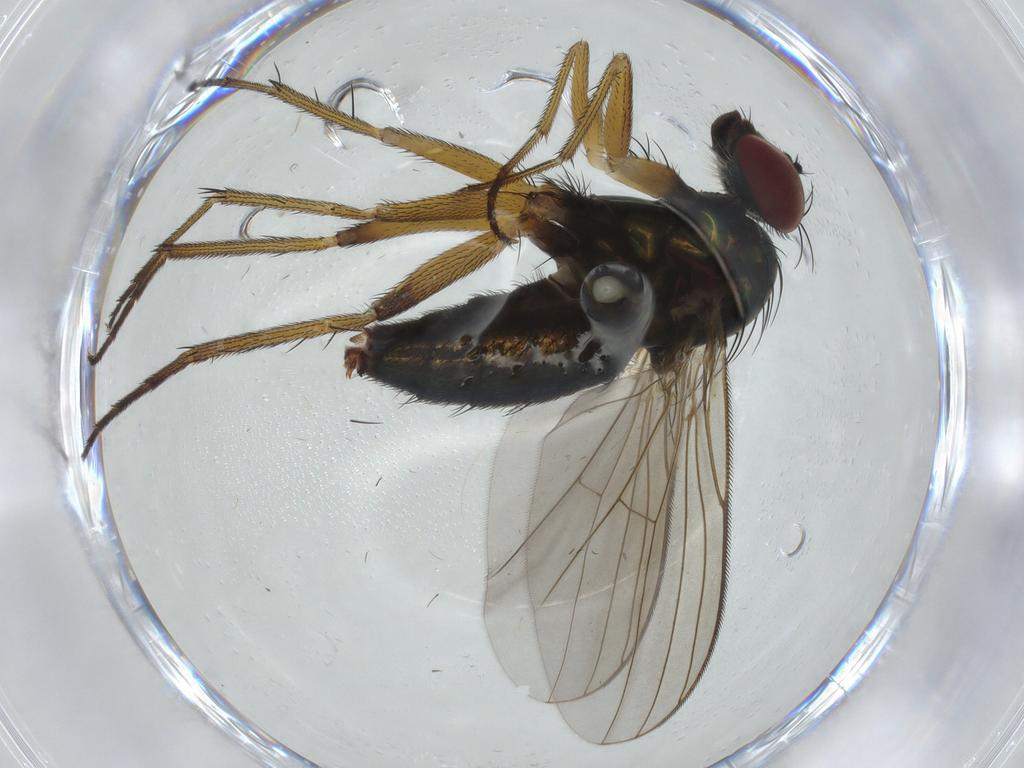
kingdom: Animalia
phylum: Arthropoda
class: Insecta
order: Diptera
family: Dolichopodidae
